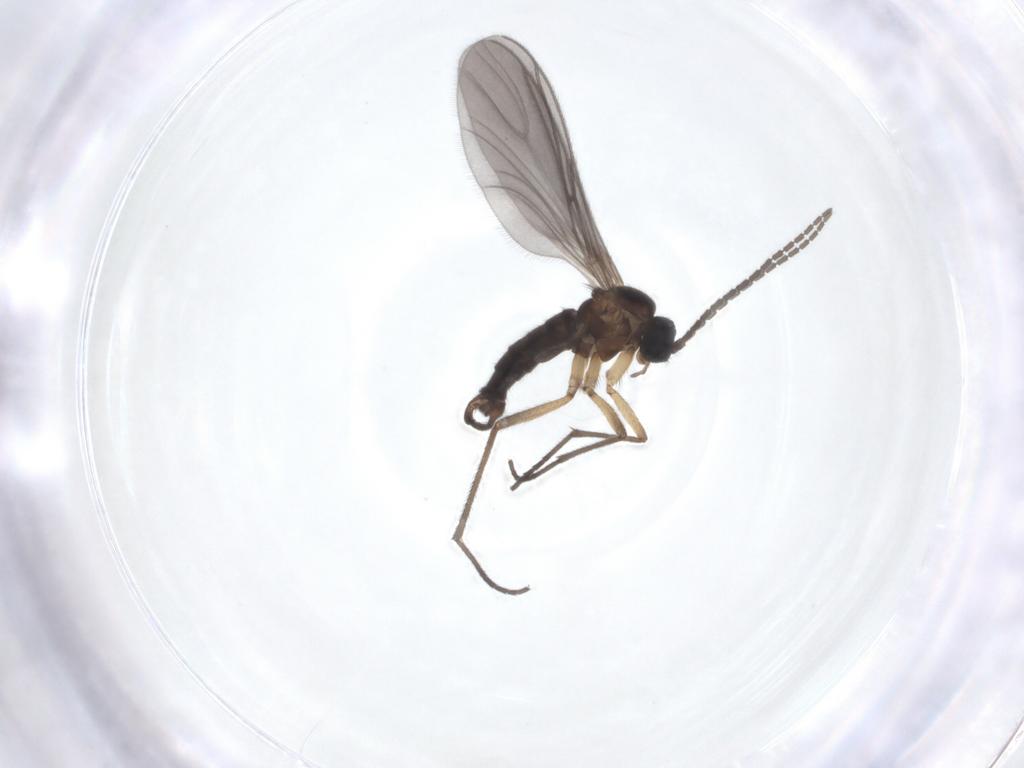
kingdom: Animalia
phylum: Arthropoda
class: Insecta
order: Diptera
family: Sciaridae
